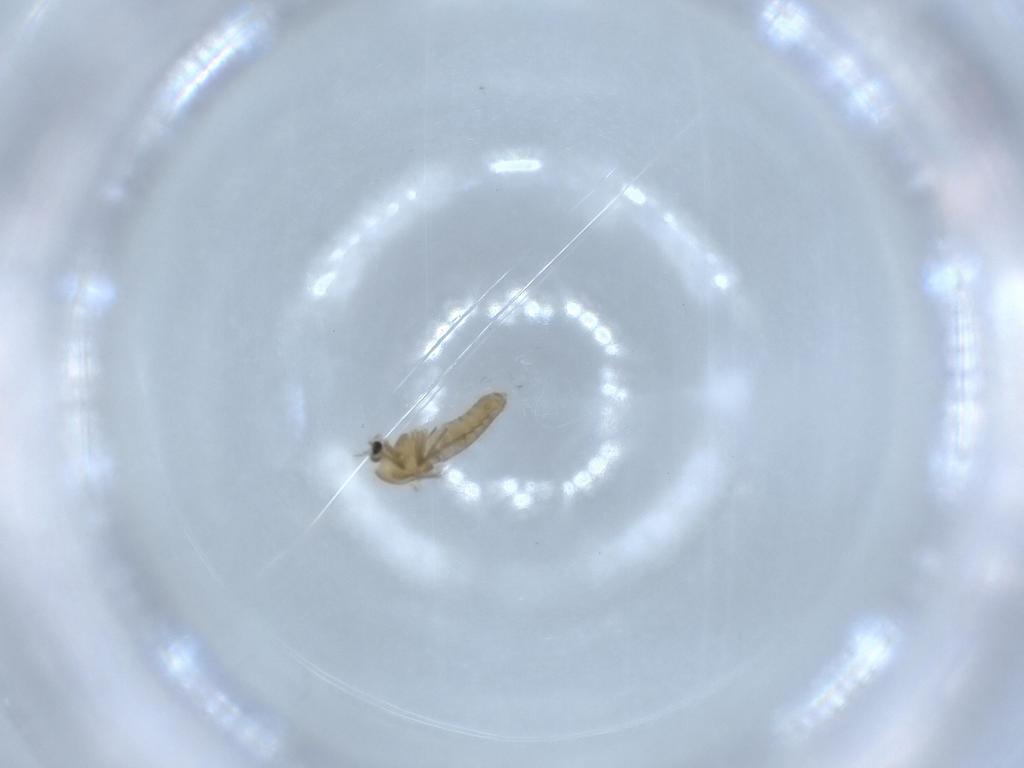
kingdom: Animalia
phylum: Arthropoda
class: Insecta
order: Diptera
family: Chironomidae
